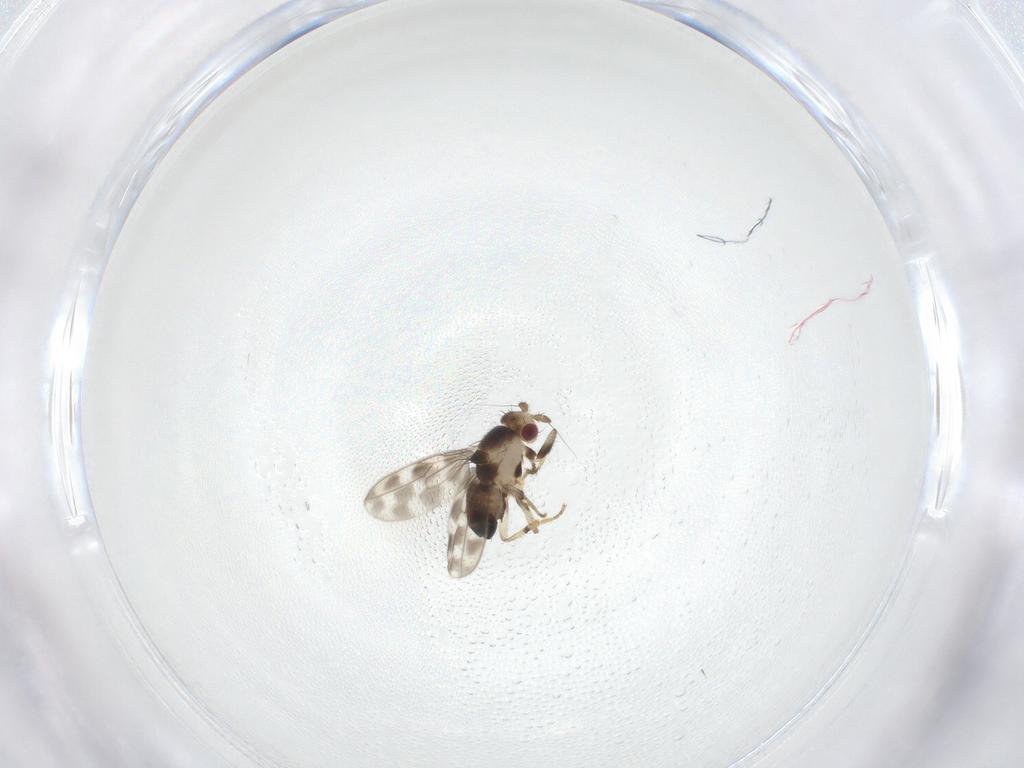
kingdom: Animalia
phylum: Arthropoda
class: Insecta
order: Diptera
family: Sphaeroceridae
